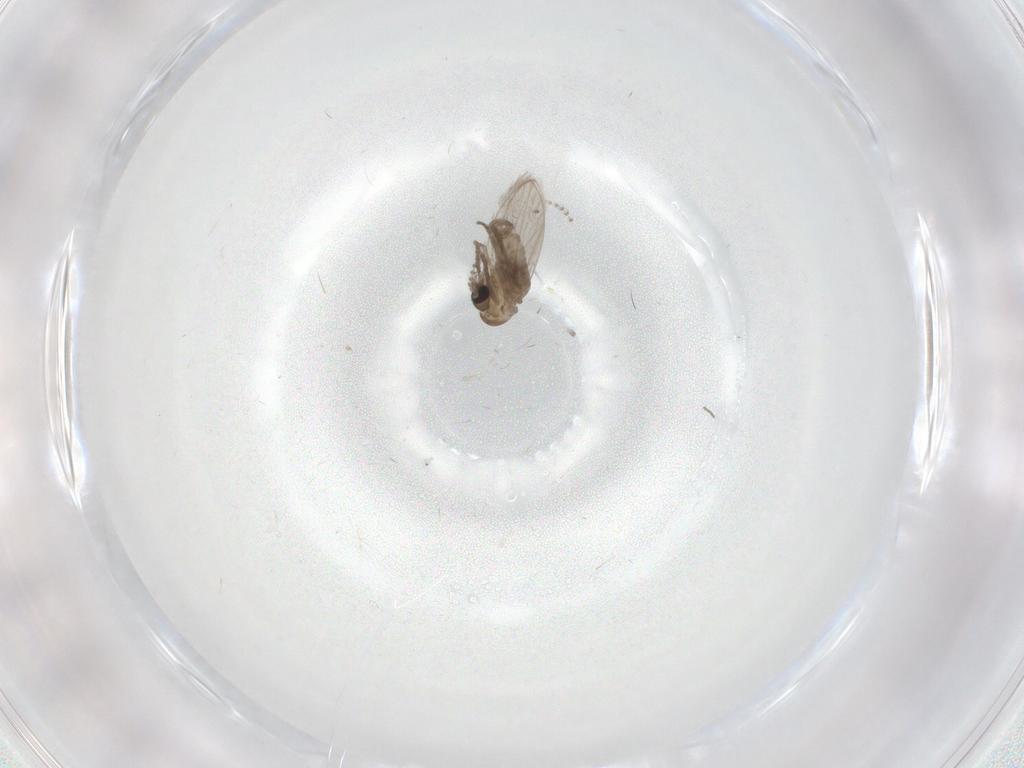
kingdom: Animalia
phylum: Arthropoda
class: Insecta
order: Diptera
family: Psychodidae
